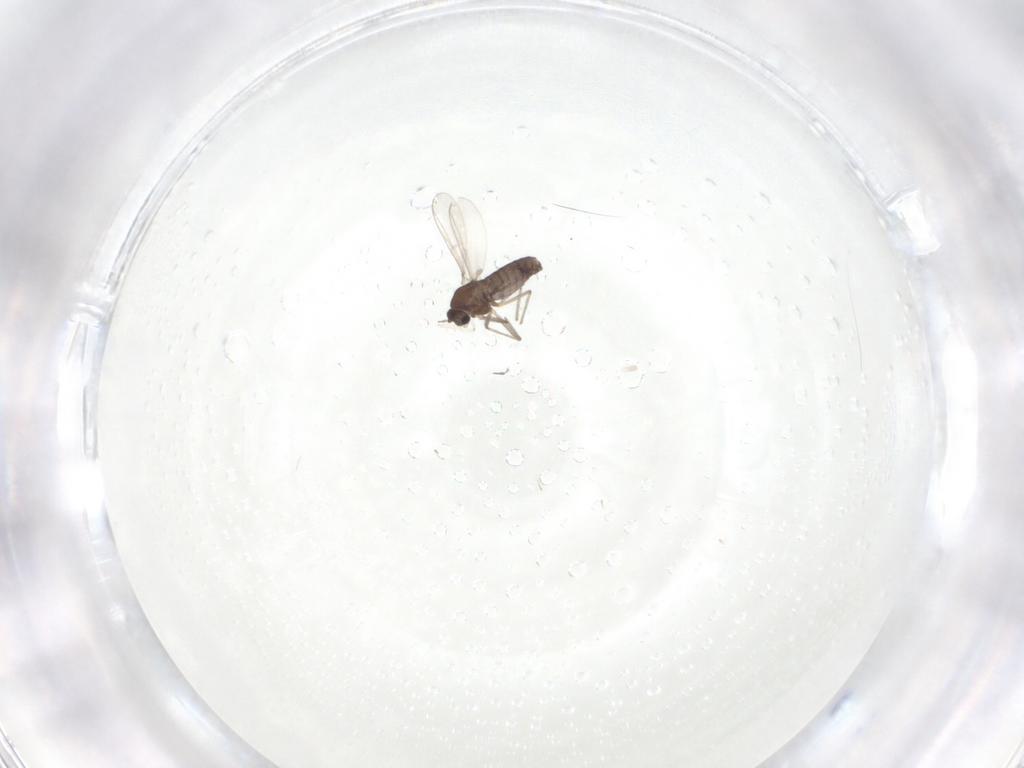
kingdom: Animalia
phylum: Arthropoda
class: Insecta
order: Diptera
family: Chironomidae
